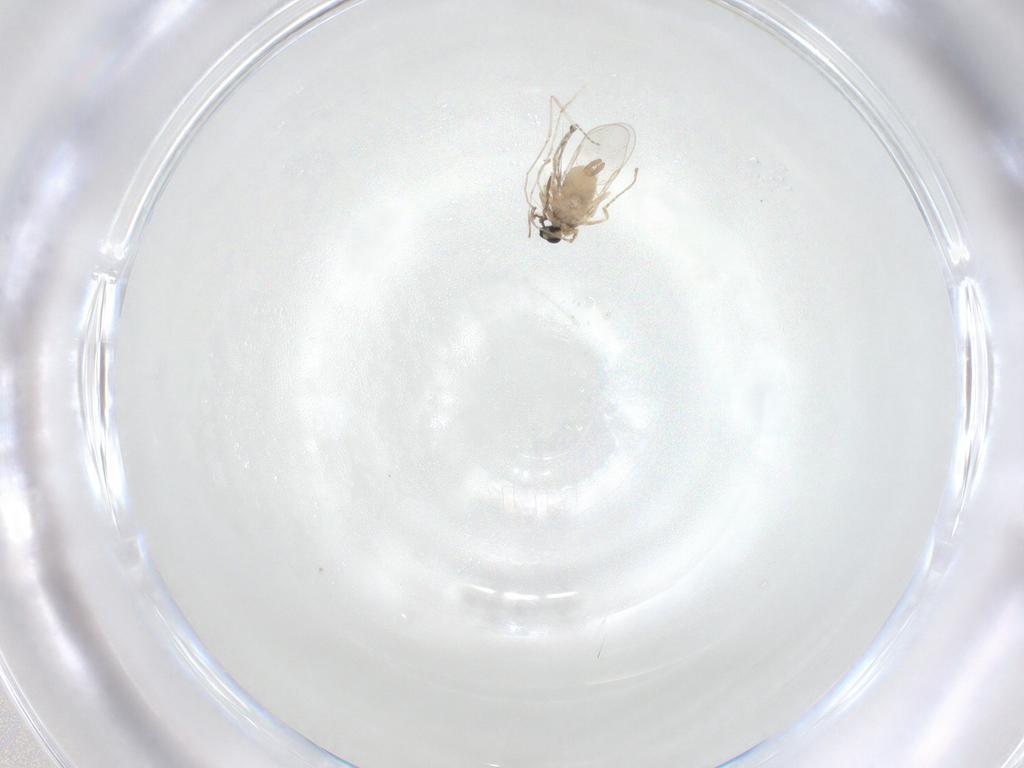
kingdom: Animalia
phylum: Arthropoda
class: Insecta
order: Diptera
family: Cecidomyiidae
